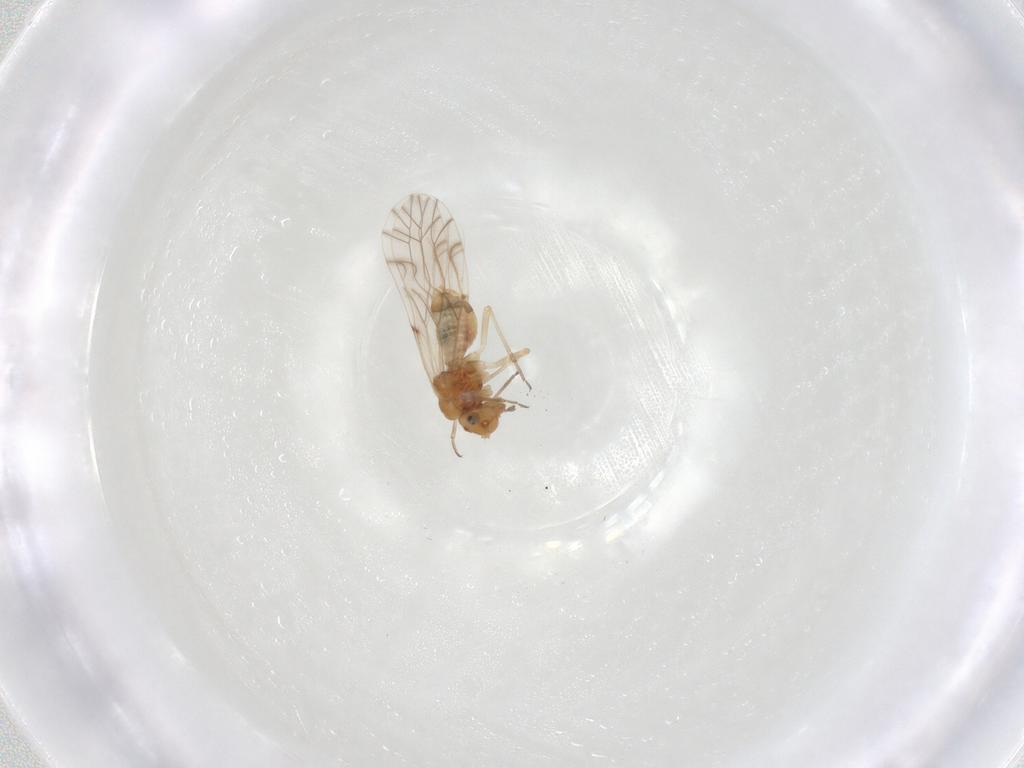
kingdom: Animalia
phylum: Arthropoda
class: Insecta
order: Psocodea
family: Lachesillidae
